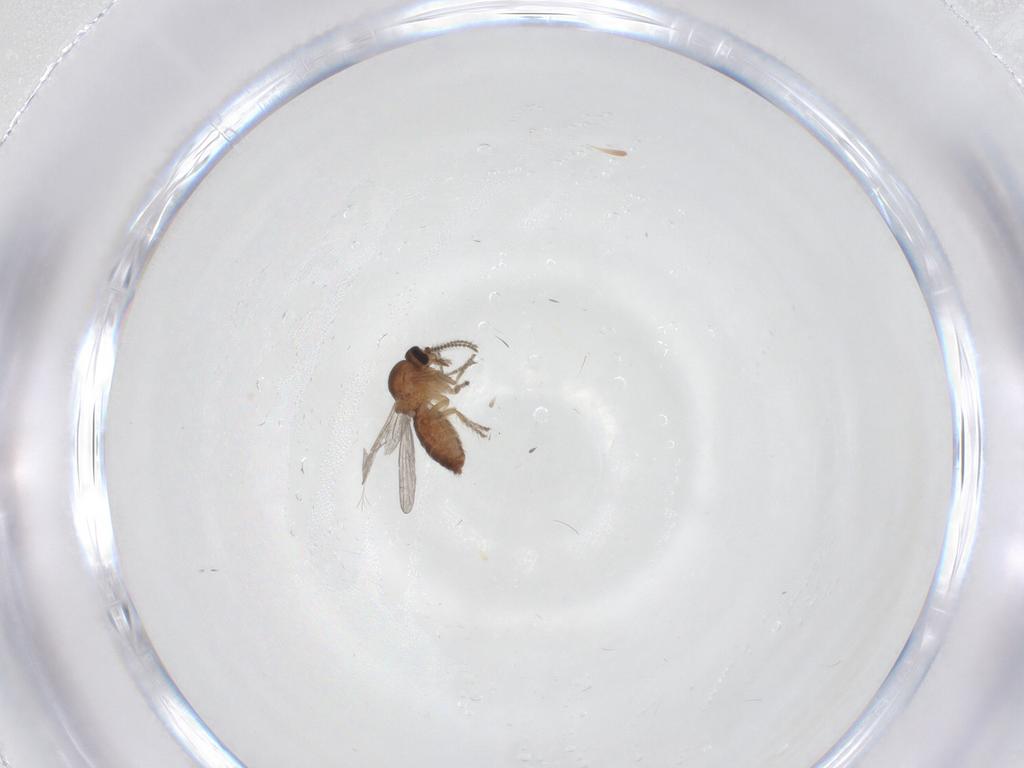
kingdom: Animalia
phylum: Arthropoda
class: Insecta
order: Diptera
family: Ceratopogonidae
